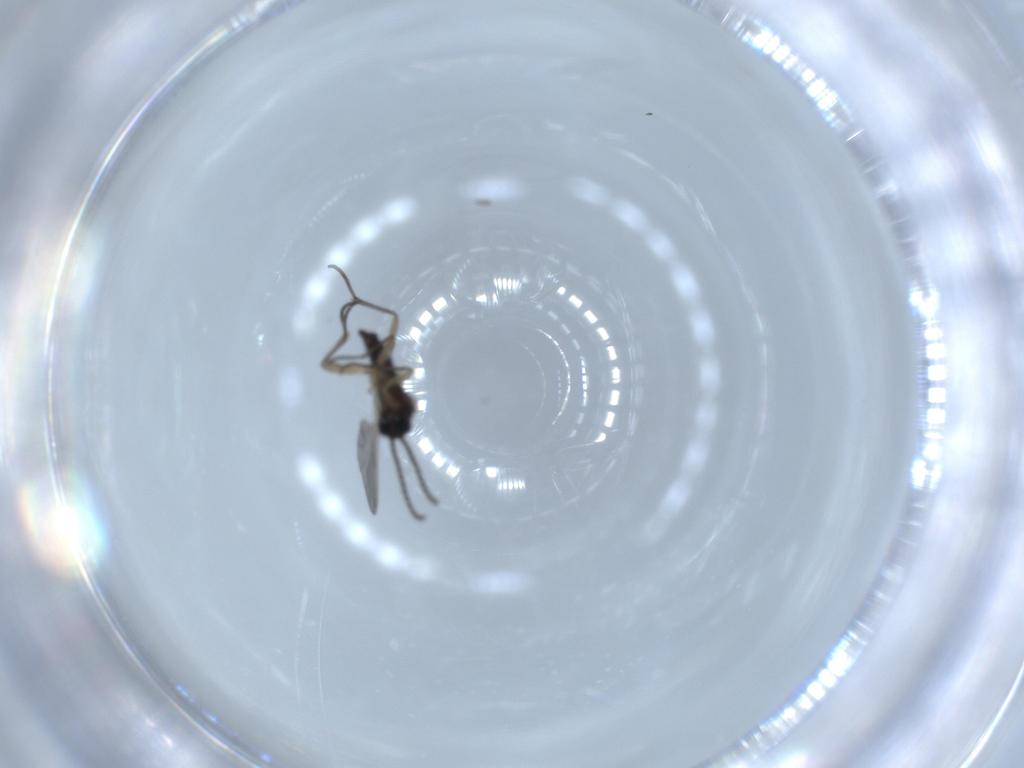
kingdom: Animalia
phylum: Arthropoda
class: Insecta
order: Diptera
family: Sciaridae
